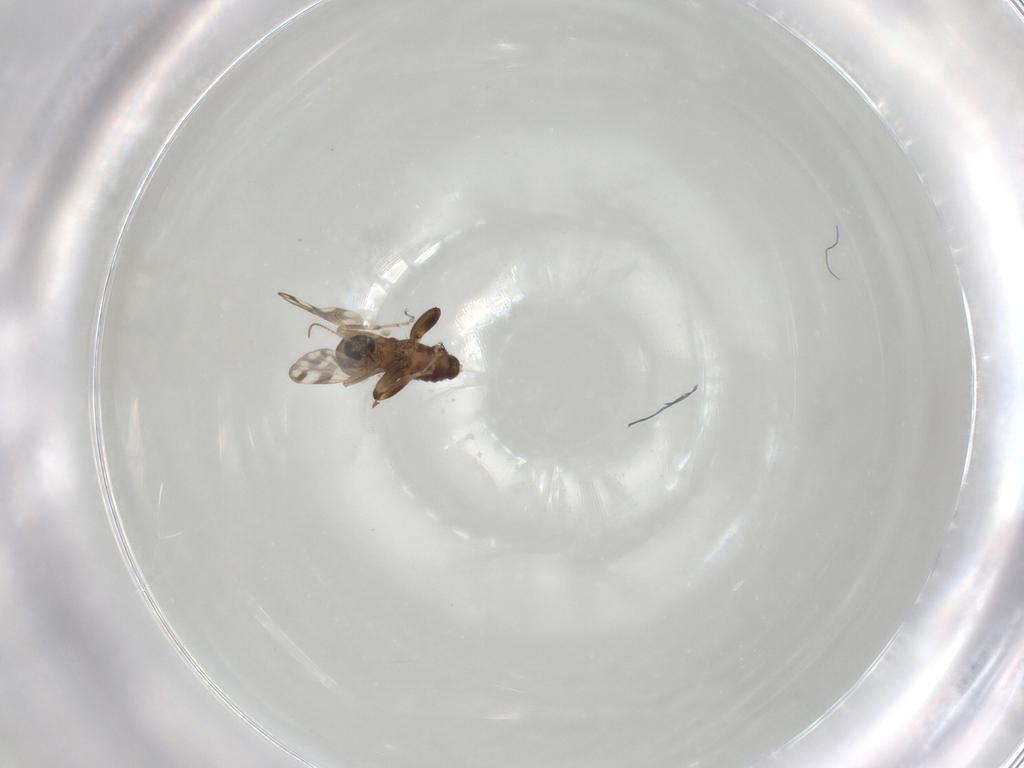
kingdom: Animalia
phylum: Arthropoda
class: Insecta
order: Diptera
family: Ceratopogonidae
